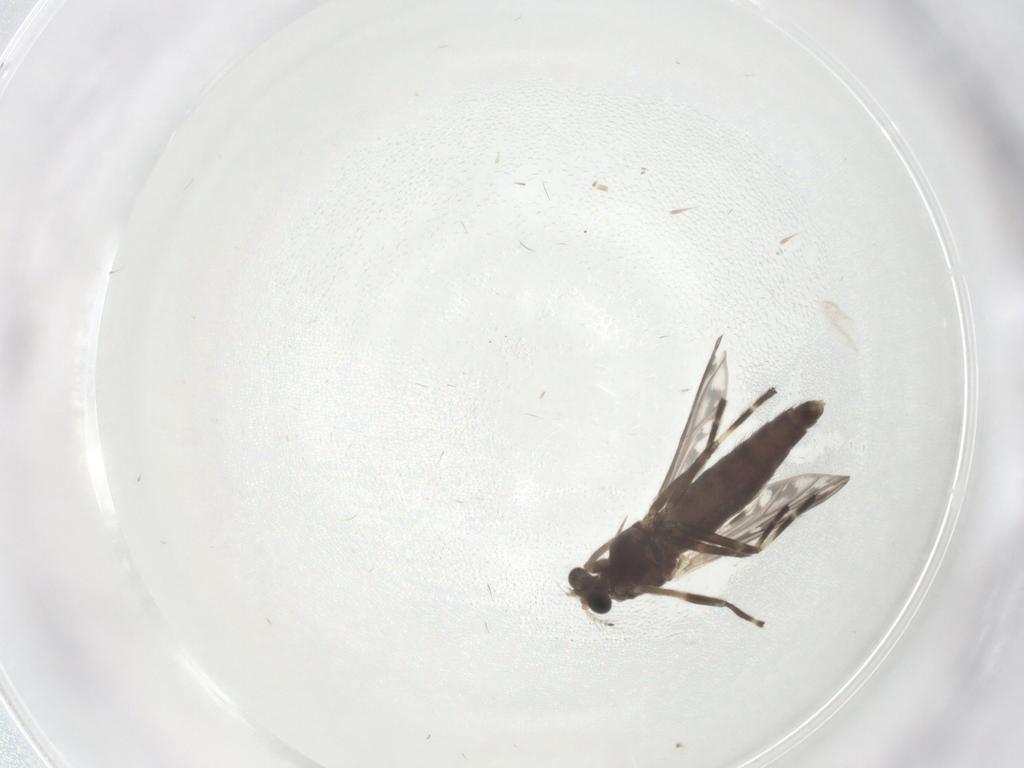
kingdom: Animalia
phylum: Arthropoda
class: Insecta
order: Diptera
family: Chironomidae
